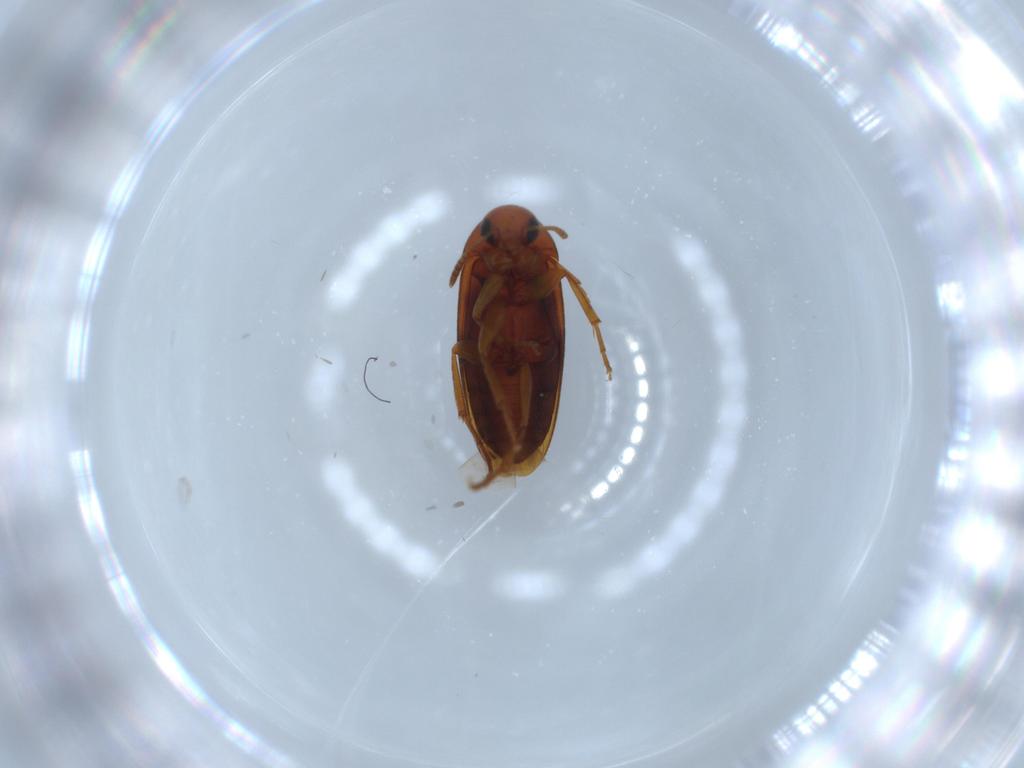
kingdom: Animalia
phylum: Arthropoda
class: Insecta
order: Coleoptera
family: Scraptiidae
